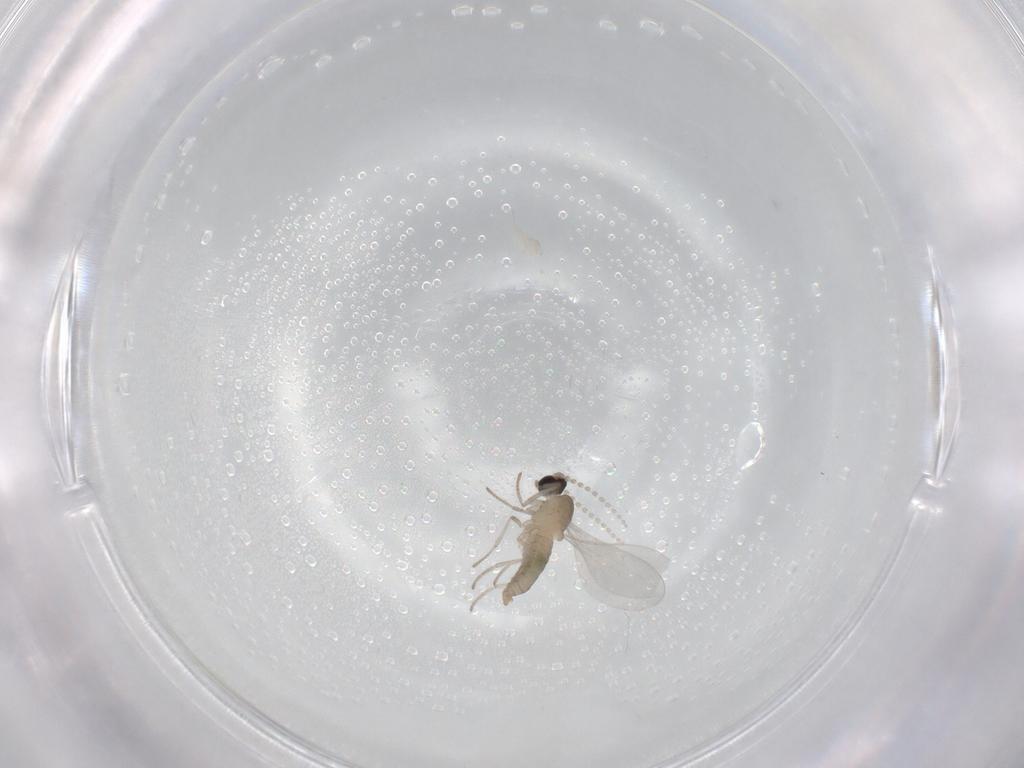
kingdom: Animalia
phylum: Arthropoda
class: Insecta
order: Diptera
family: Cecidomyiidae
